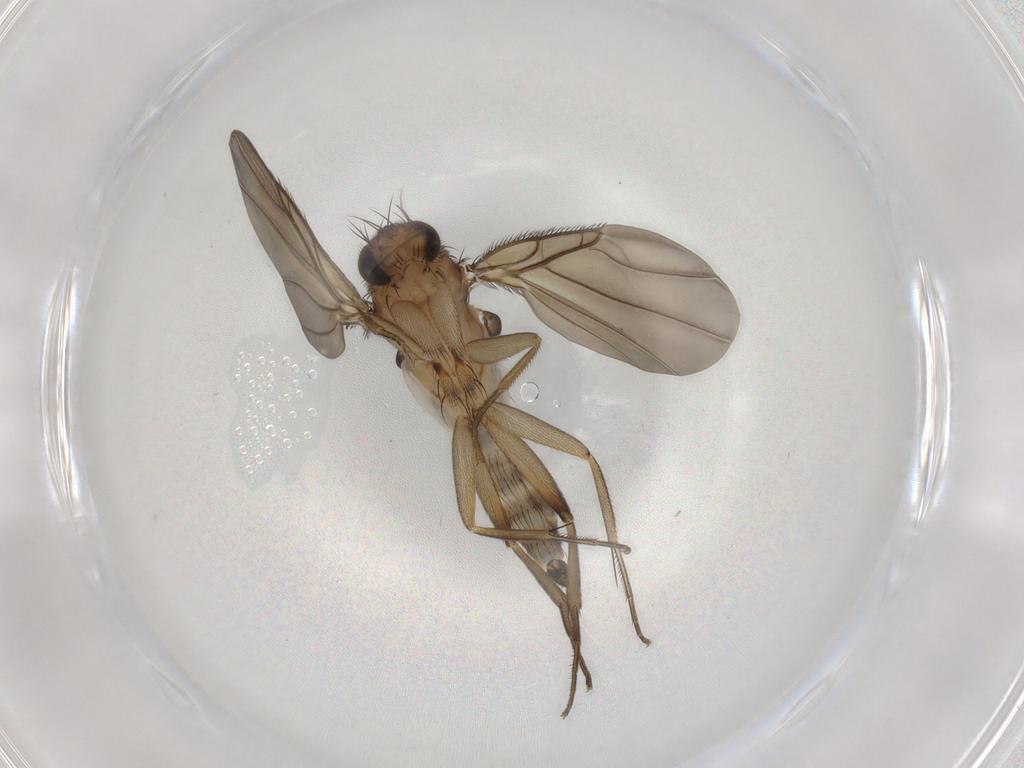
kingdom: Animalia
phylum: Arthropoda
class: Insecta
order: Diptera
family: Phoridae
